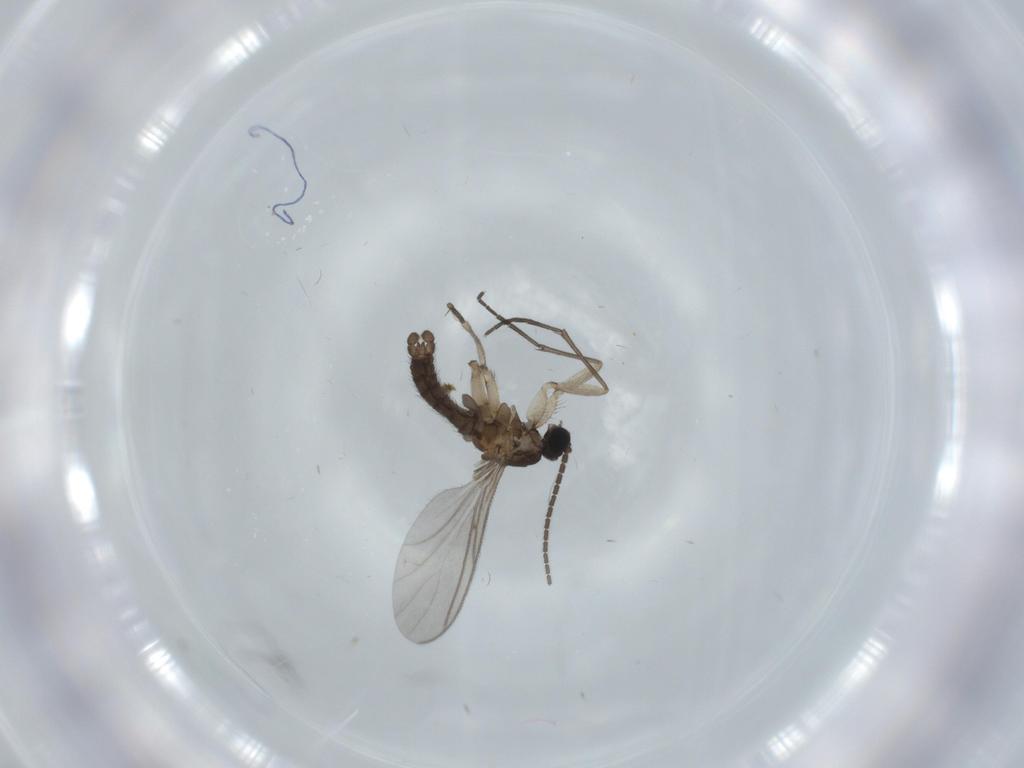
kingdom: Animalia
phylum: Arthropoda
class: Insecta
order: Diptera
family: Sciaridae
